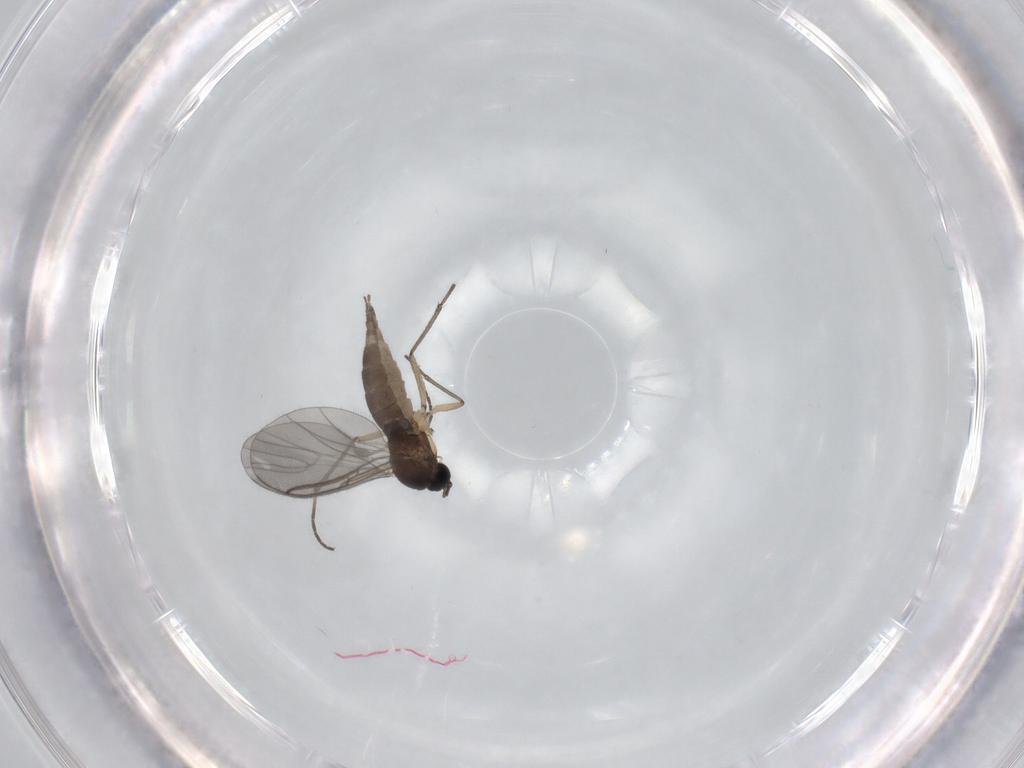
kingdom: Animalia
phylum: Arthropoda
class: Insecta
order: Diptera
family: Sciaridae
